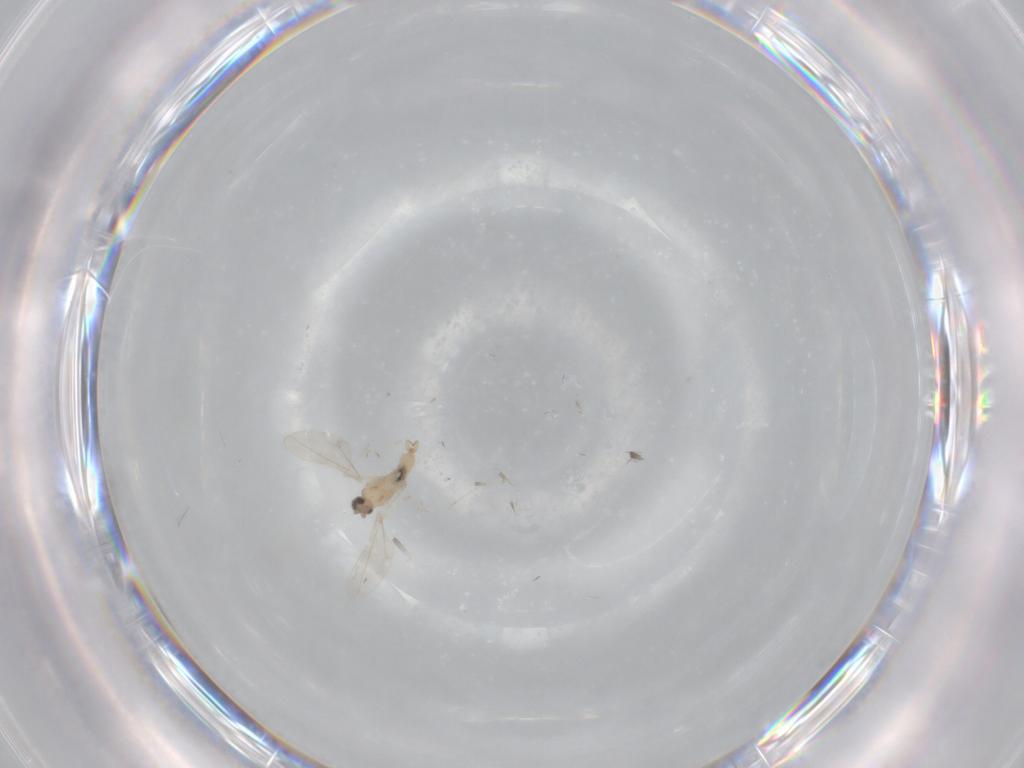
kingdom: Animalia
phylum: Arthropoda
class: Insecta
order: Diptera
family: Cecidomyiidae
